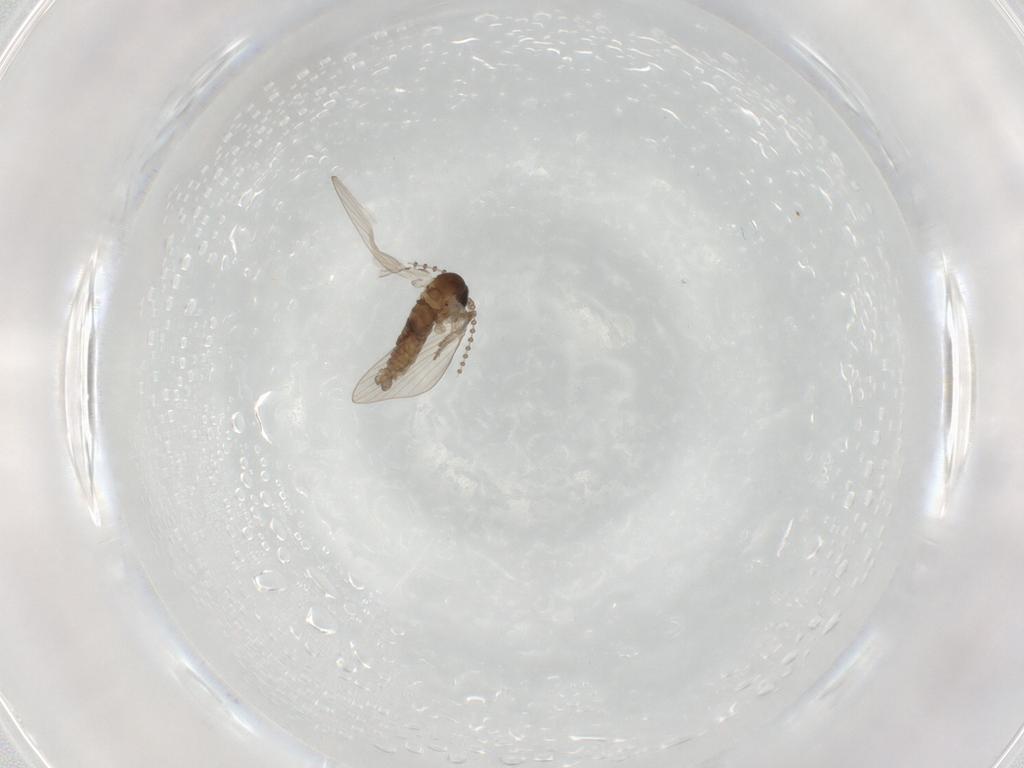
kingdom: Animalia
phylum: Arthropoda
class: Insecta
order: Diptera
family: Psychodidae
